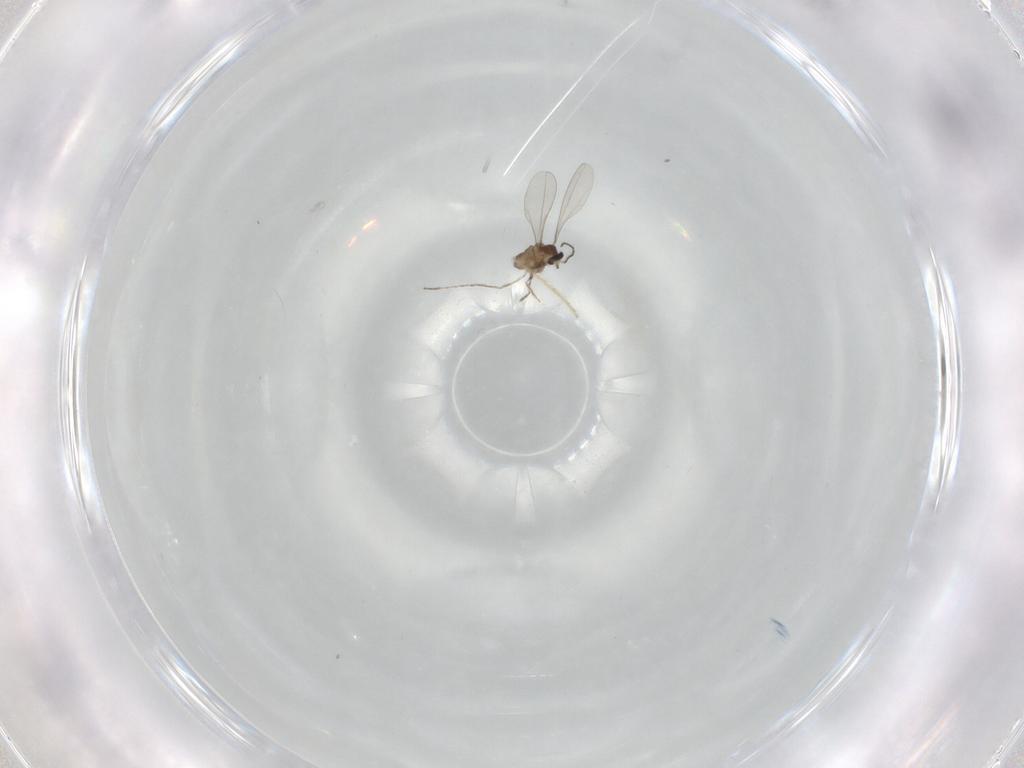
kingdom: Animalia
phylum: Arthropoda
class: Insecta
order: Diptera
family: Cecidomyiidae
